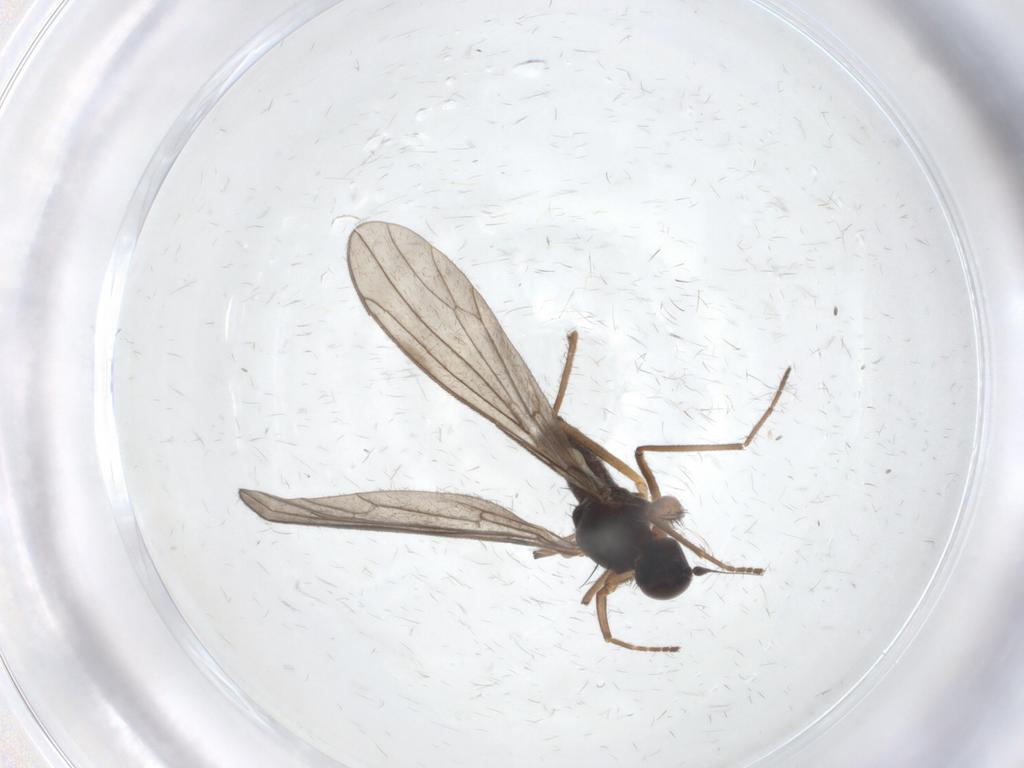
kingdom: Animalia
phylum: Arthropoda
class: Insecta
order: Diptera
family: Empididae
